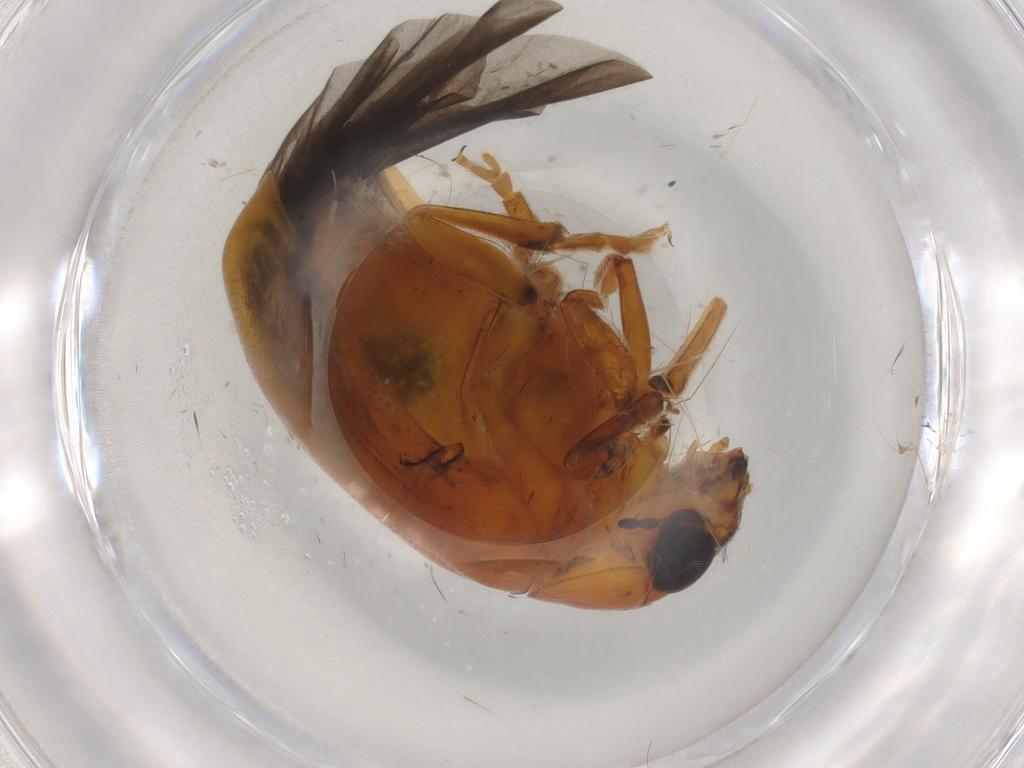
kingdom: Animalia
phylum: Arthropoda
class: Insecta
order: Coleoptera
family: Chrysomelidae
